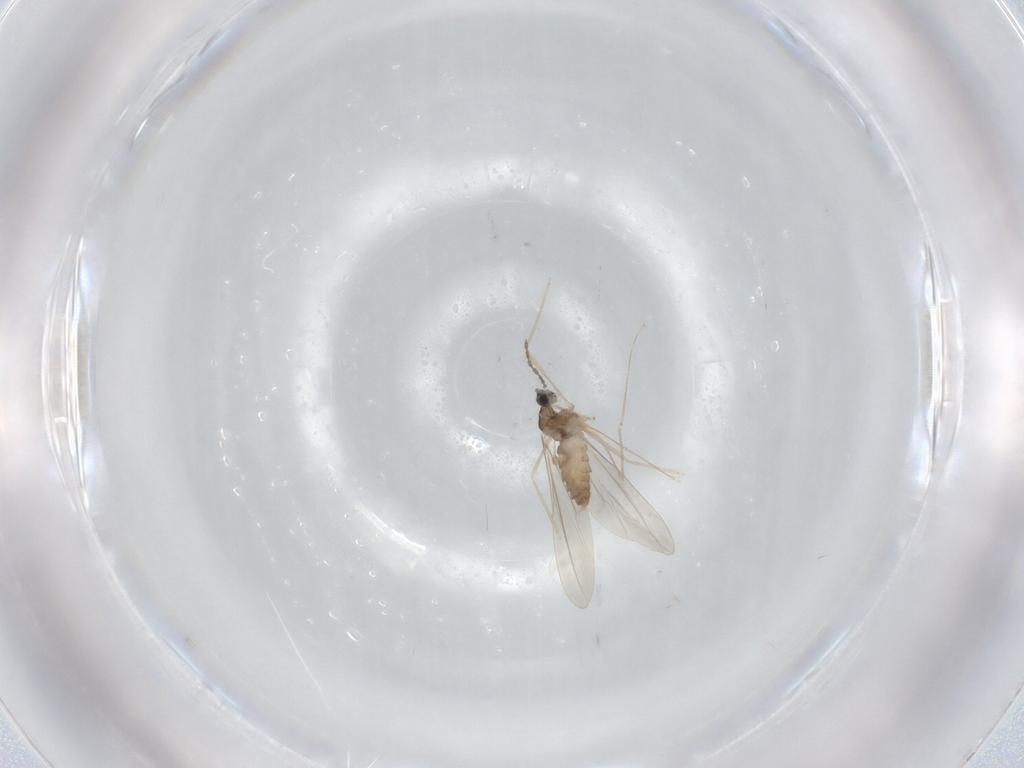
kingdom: Animalia
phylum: Arthropoda
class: Insecta
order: Diptera
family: Cecidomyiidae
